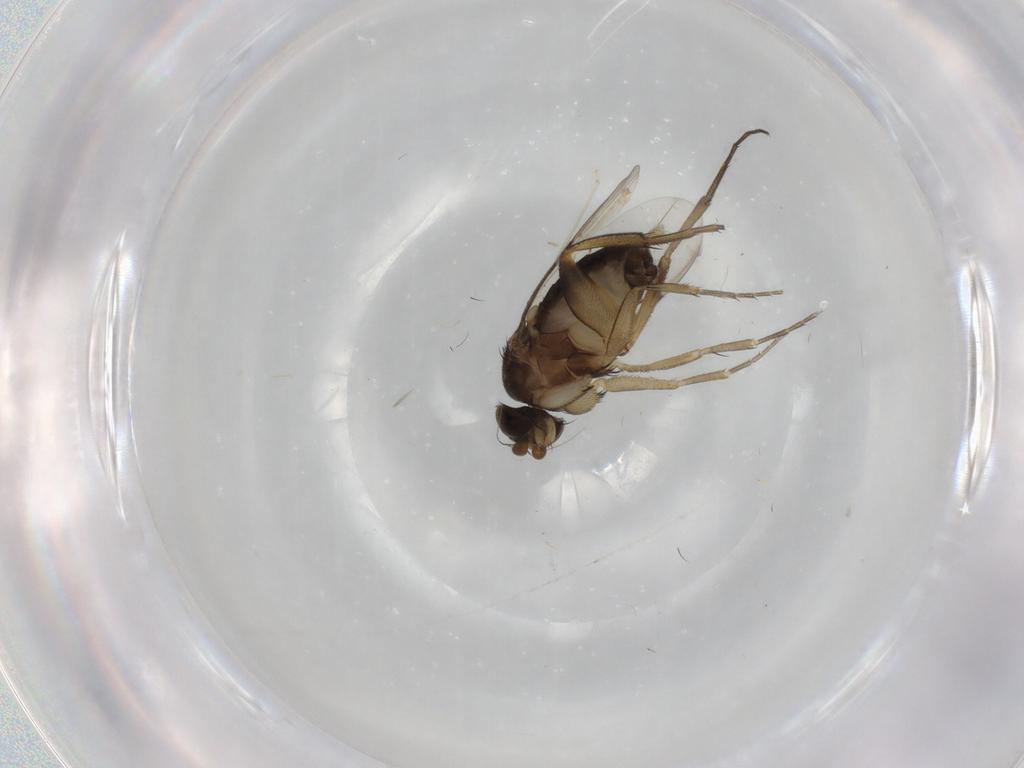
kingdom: Animalia
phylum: Arthropoda
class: Insecta
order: Diptera
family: Phoridae
